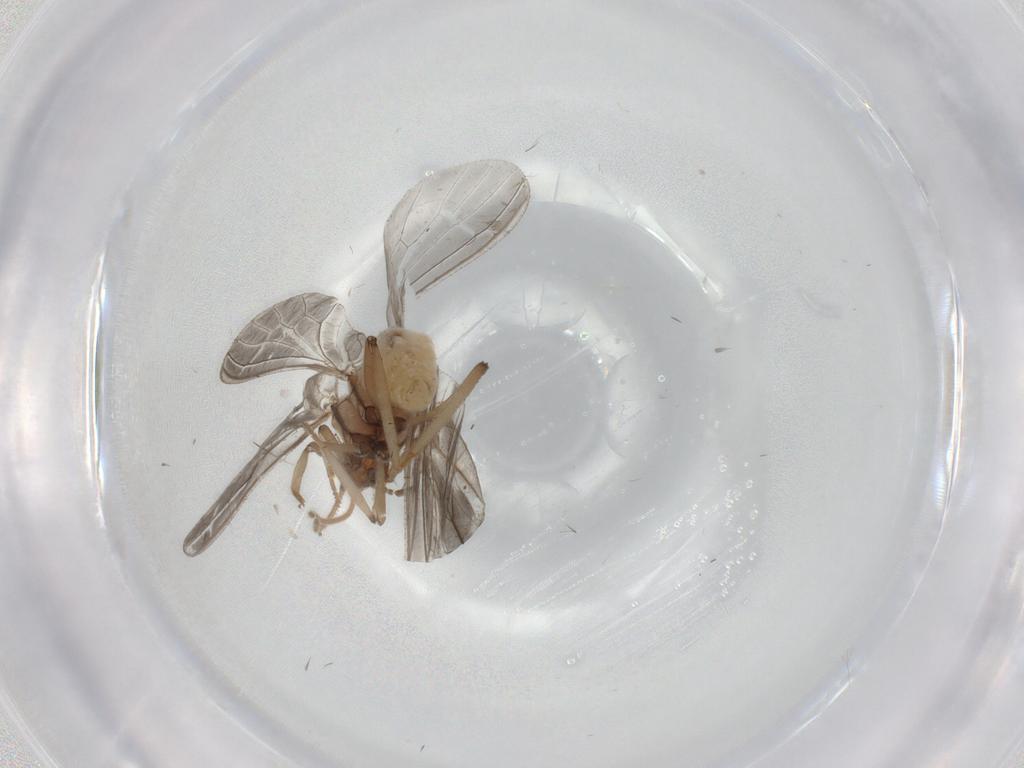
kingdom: Animalia
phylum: Arthropoda
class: Insecta
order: Neuroptera
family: Coniopterygidae
